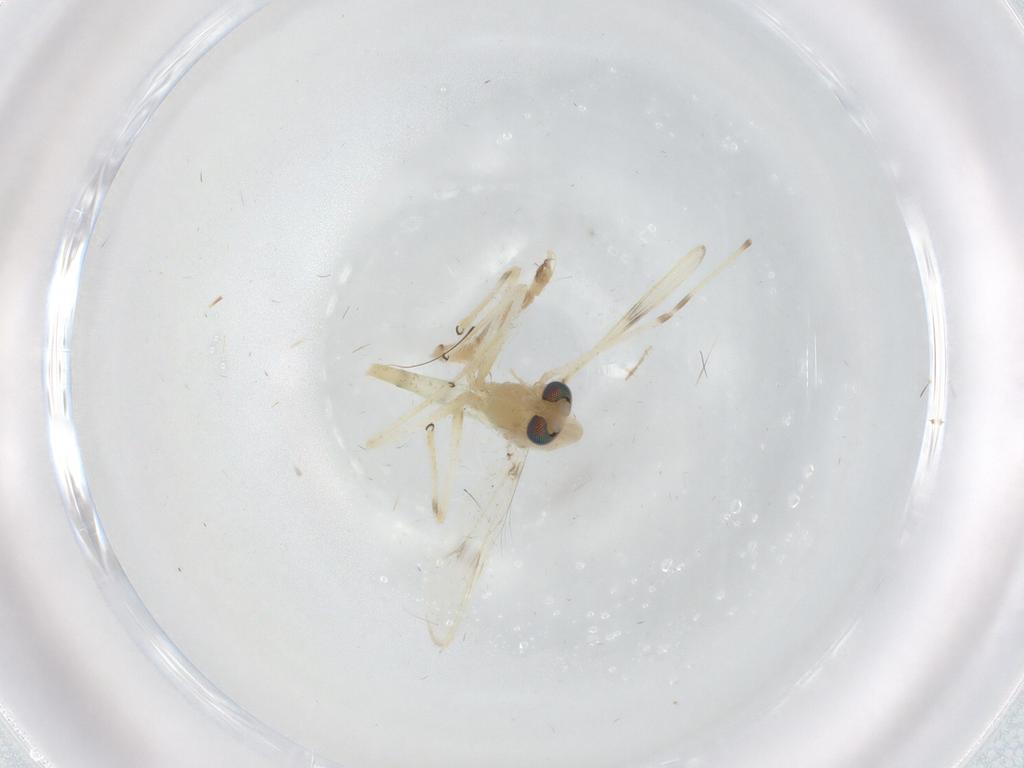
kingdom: Animalia
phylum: Arthropoda
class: Insecta
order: Diptera
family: Chironomidae
